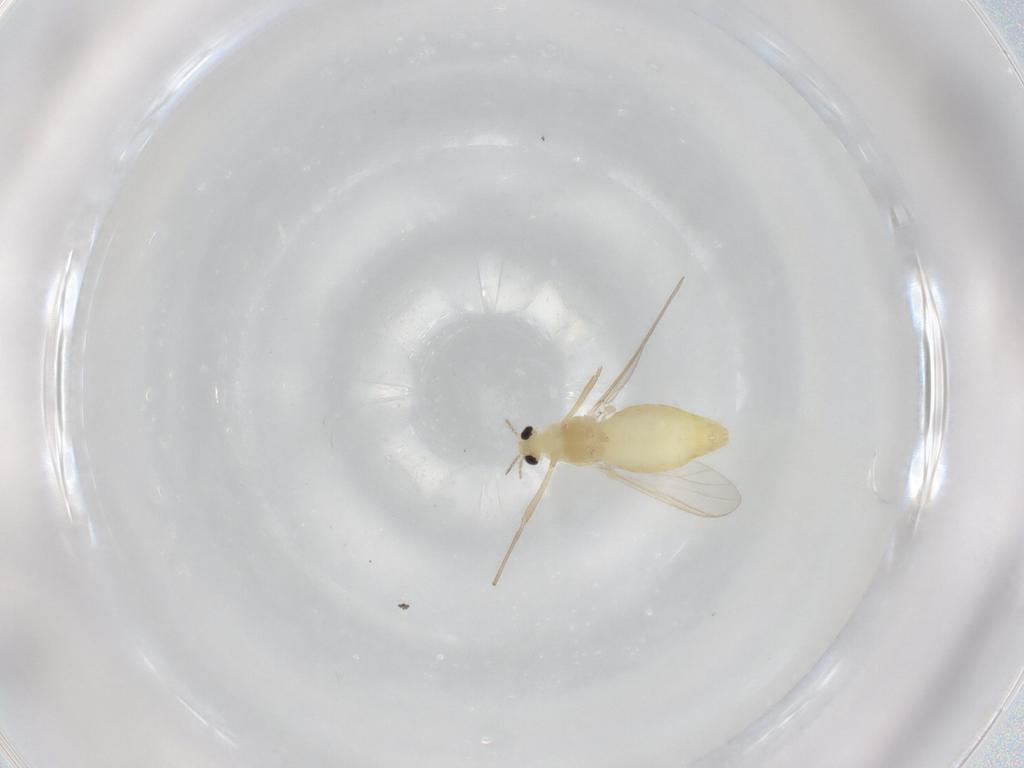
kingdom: Animalia
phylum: Arthropoda
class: Insecta
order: Diptera
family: Chironomidae
